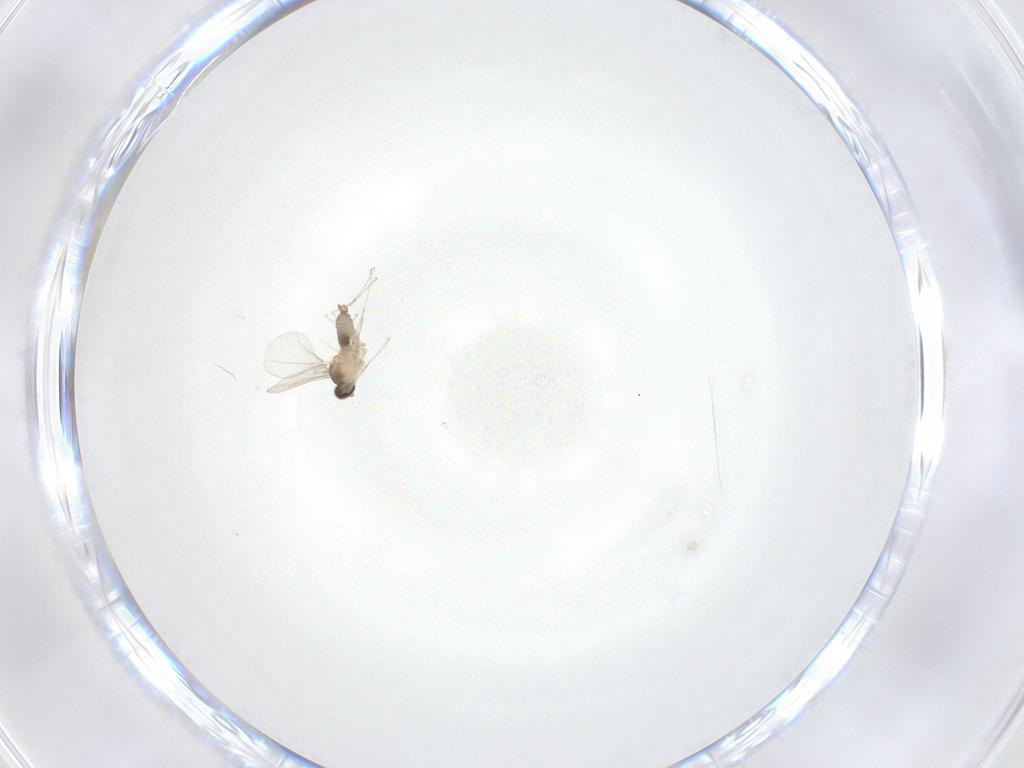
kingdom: Animalia
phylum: Arthropoda
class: Insecta
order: Diptera
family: Cecidomyiidae
